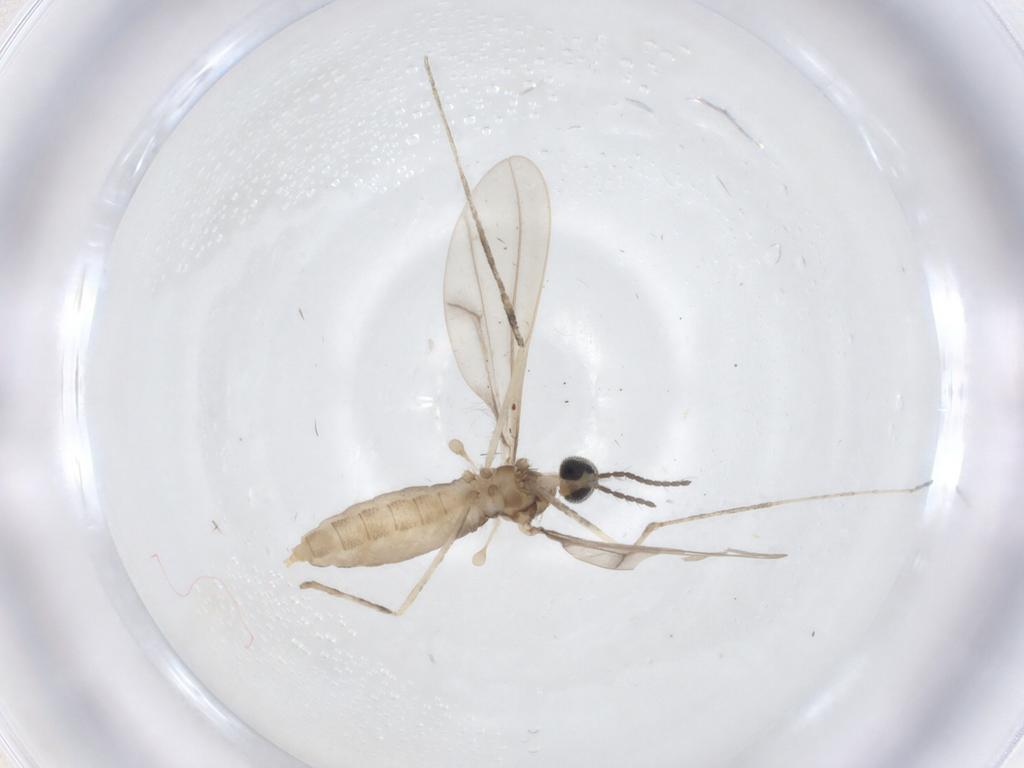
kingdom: Animalia
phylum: Arthropoda
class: Insecta
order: Diptera
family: Cecidomyiidae
